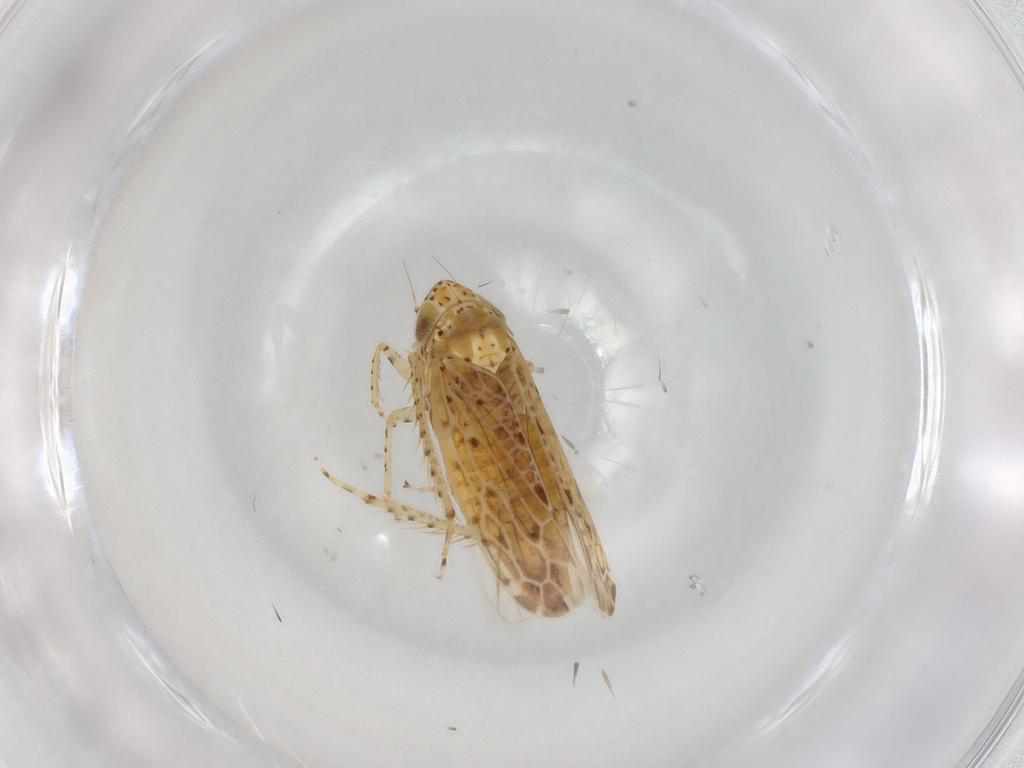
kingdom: Animalia
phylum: Arthropoda
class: Insecta
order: Hemiptera
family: Cicadellidae
